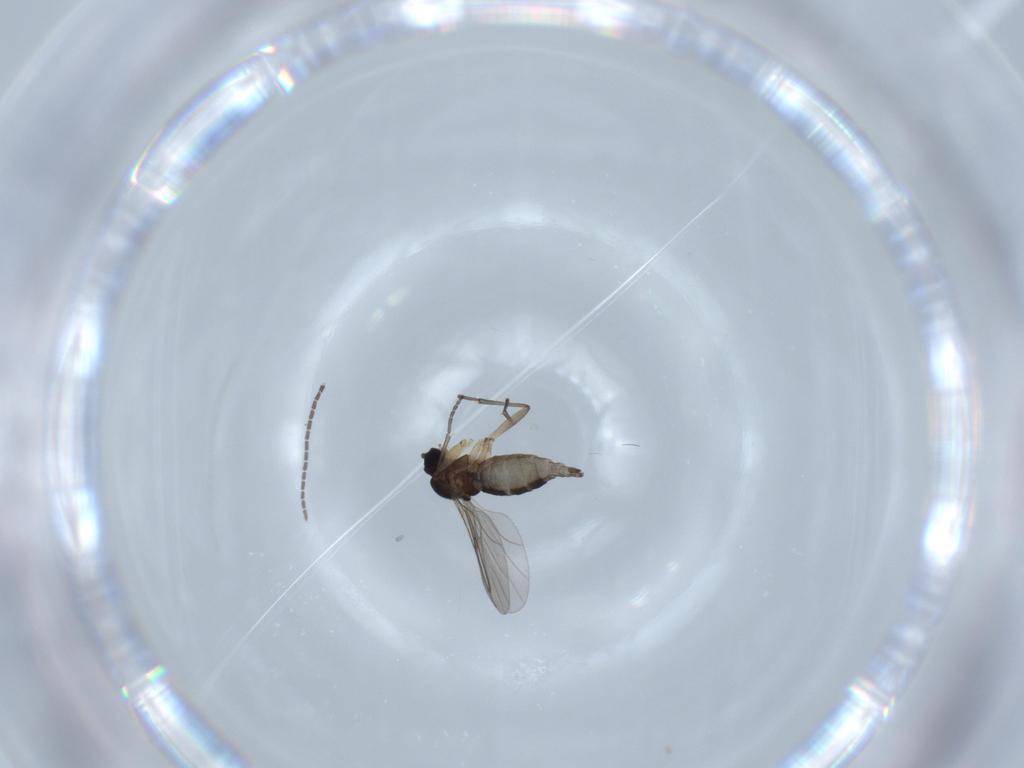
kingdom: Animalia
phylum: Arthropoda
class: Insecta
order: Diptera
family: Sciaridae
